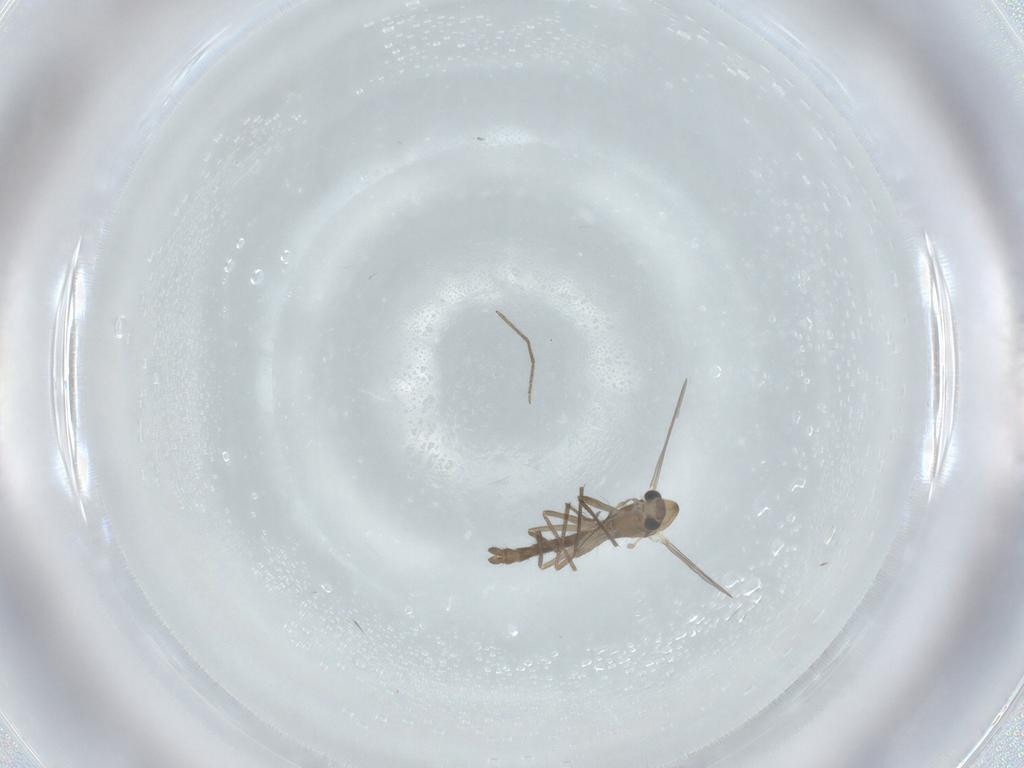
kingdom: Animalia
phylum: Arthropoda
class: Insecta
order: Diptera
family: Chironomidae
